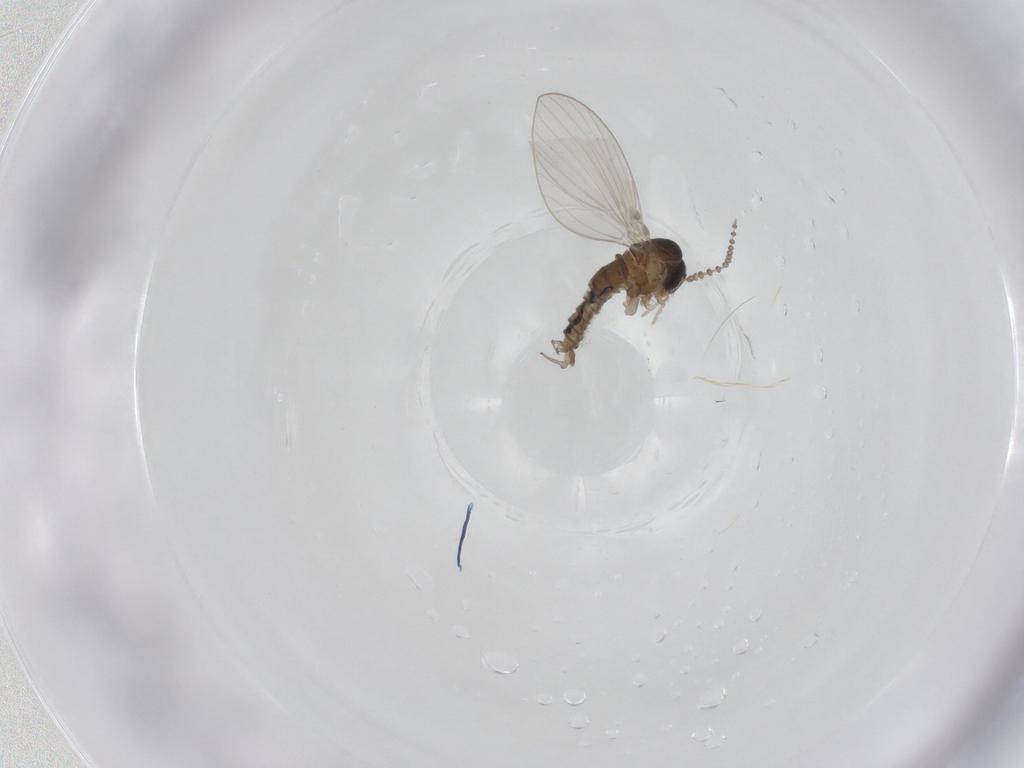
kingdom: Animalia
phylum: Arthropoda
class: Insecta
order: Diptera
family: Psychodidae
